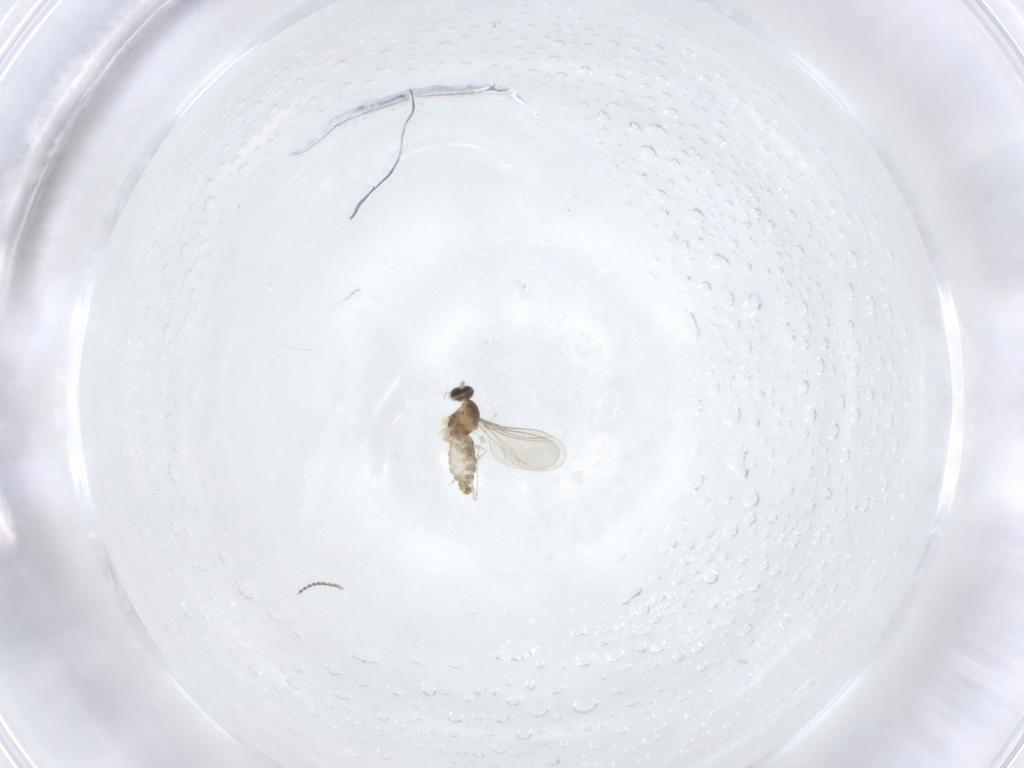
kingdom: Animalia
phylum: Arthropoda
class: Insecta
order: Diptera
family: Cecidomyiidae
